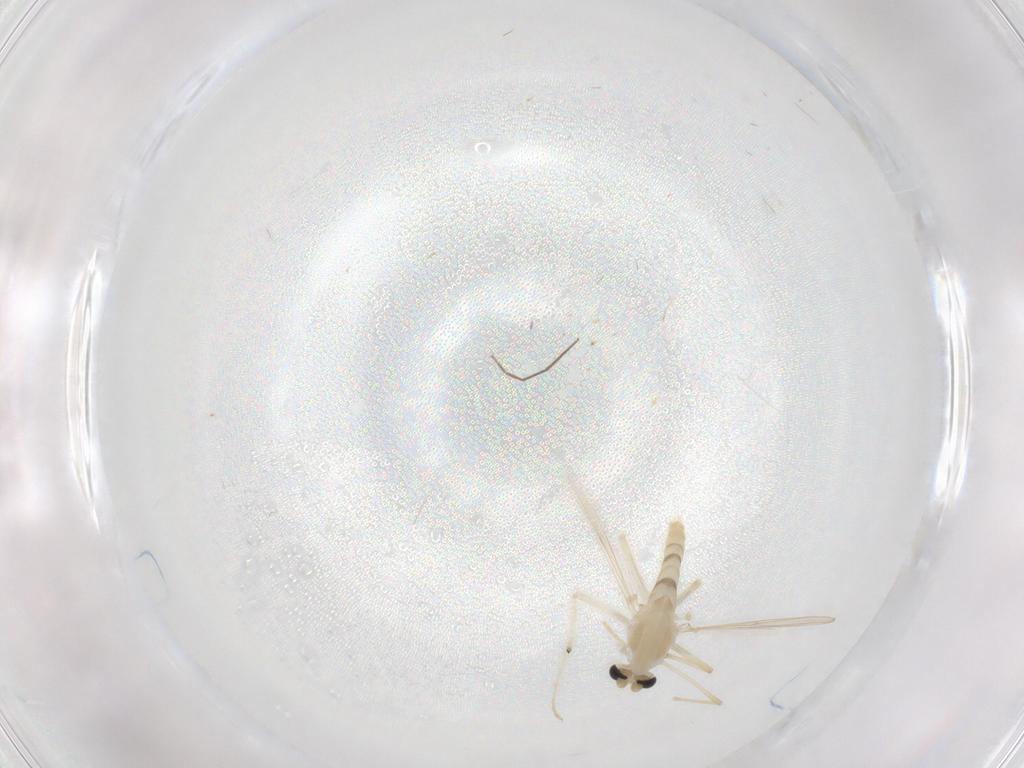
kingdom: Animalia
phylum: Arthropoda
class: Insecta
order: Diptera
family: Chironomidae
